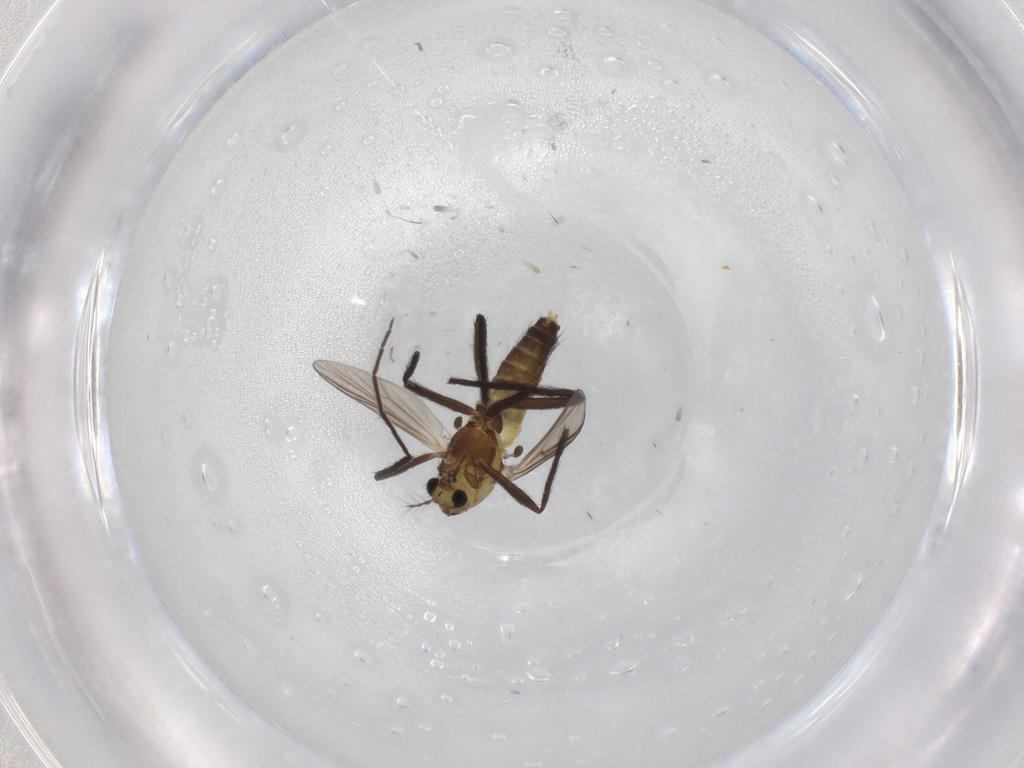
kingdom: Animalia
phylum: Arthropoda
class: Insecta
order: Diptera
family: Chironomidae
